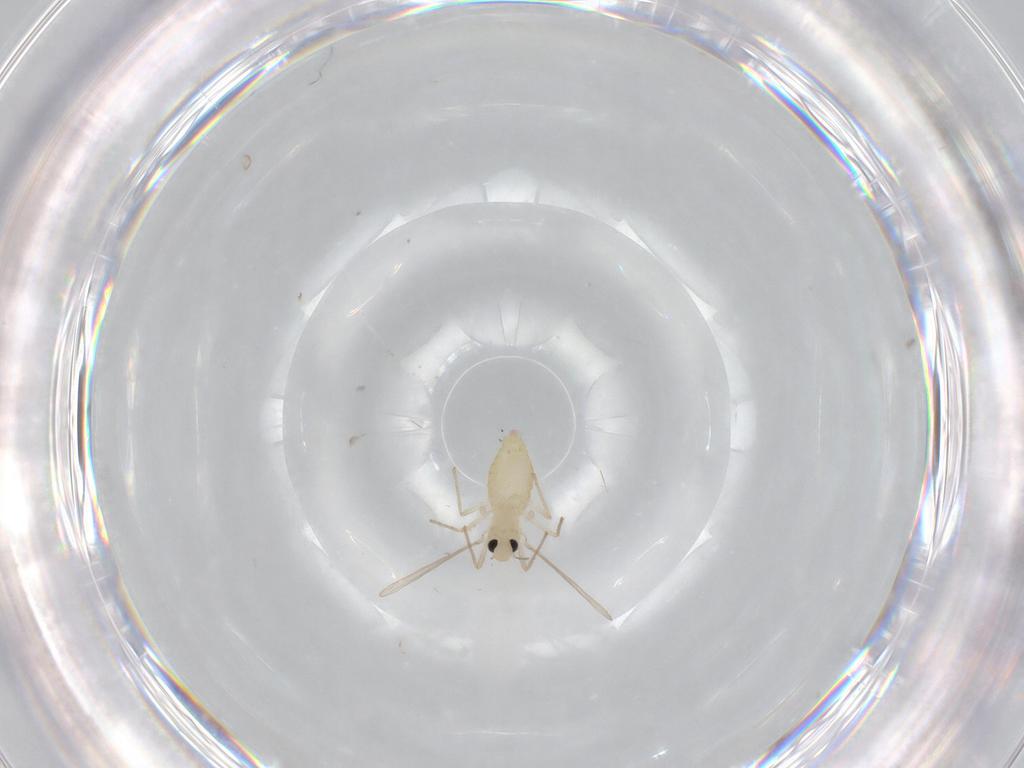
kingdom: Animalia
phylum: Arthropoda
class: Insecta
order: Diptera
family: Chironomidae
